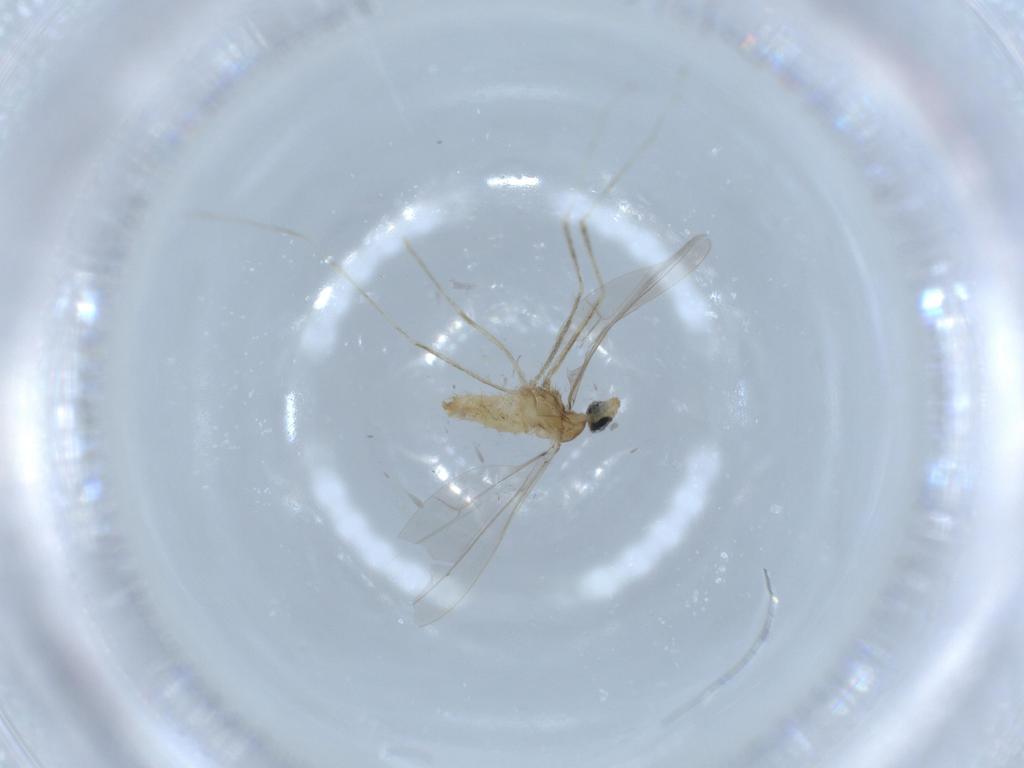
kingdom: Animalia
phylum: Arthropoda
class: Insecta
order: Diptera
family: Cecidomyiidae
